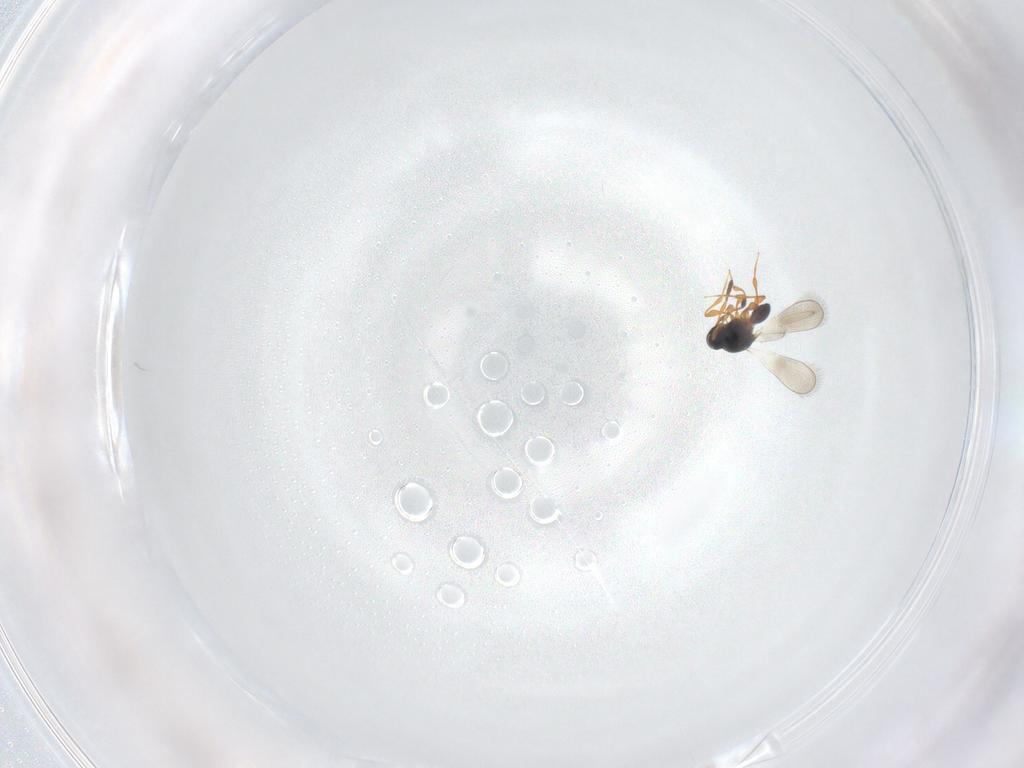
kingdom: Animalia
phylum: Arthropoda
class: Insecta
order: Hymenoptera
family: Platygastridae
